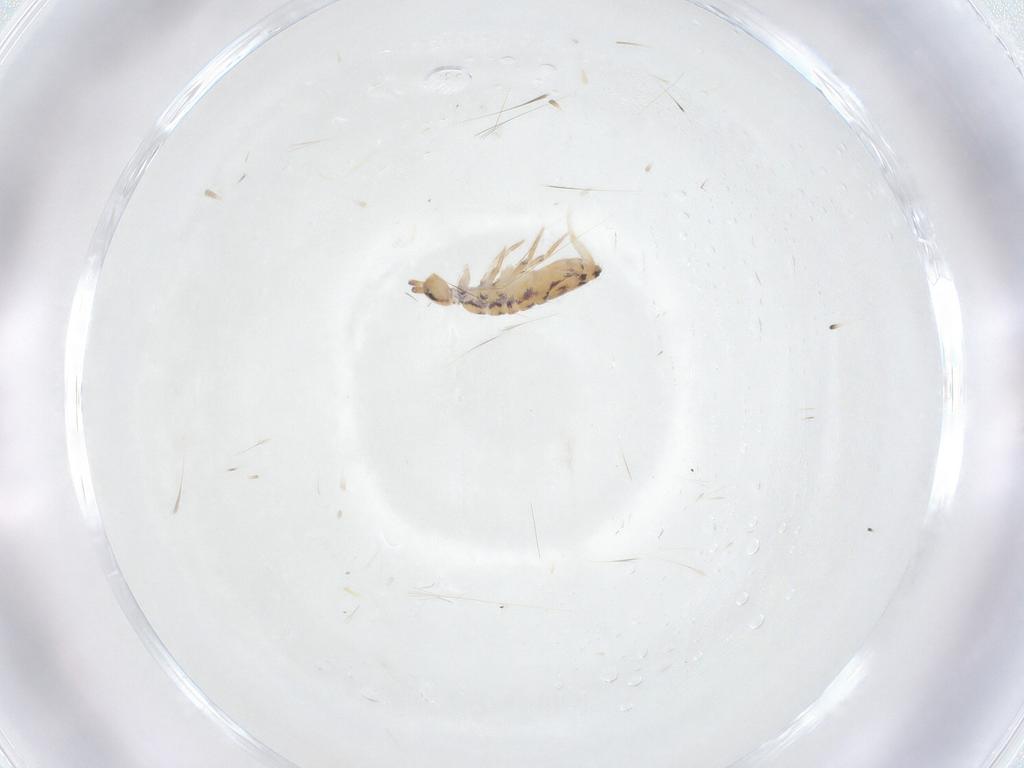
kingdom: Animalia
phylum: Arthropoda
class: Collembola
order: Entomobryomorpha
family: Entomobryidae
